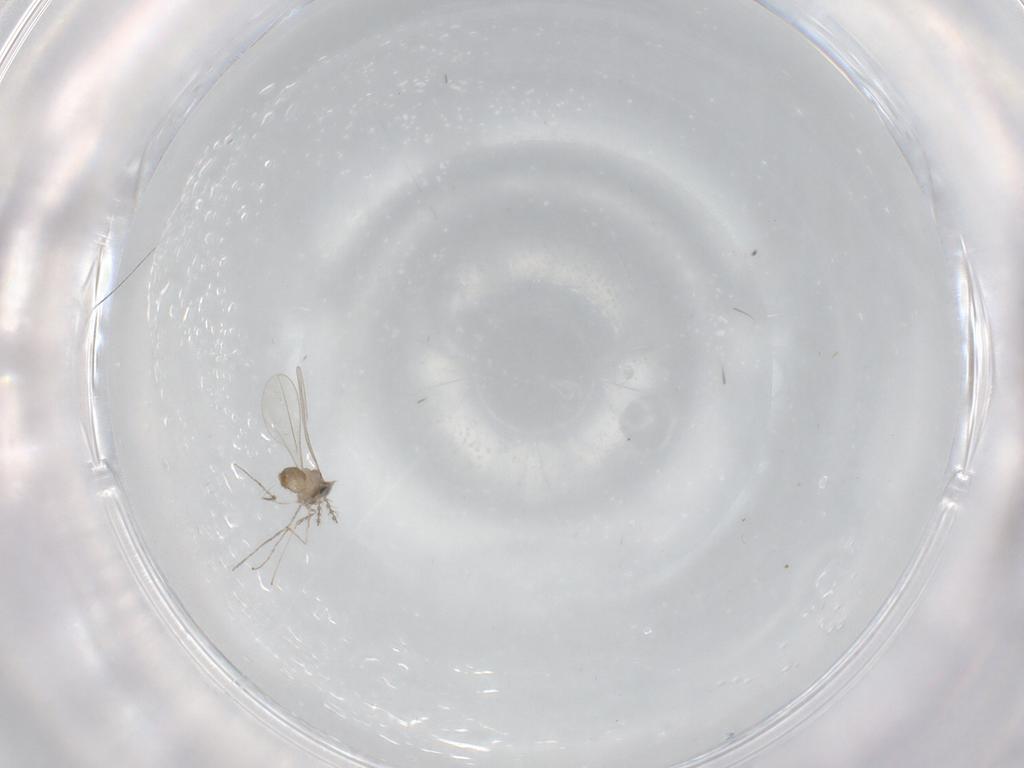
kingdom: Animalia
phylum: Arthropoda
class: Insecta
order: Diptera
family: Cecidomyiidae
